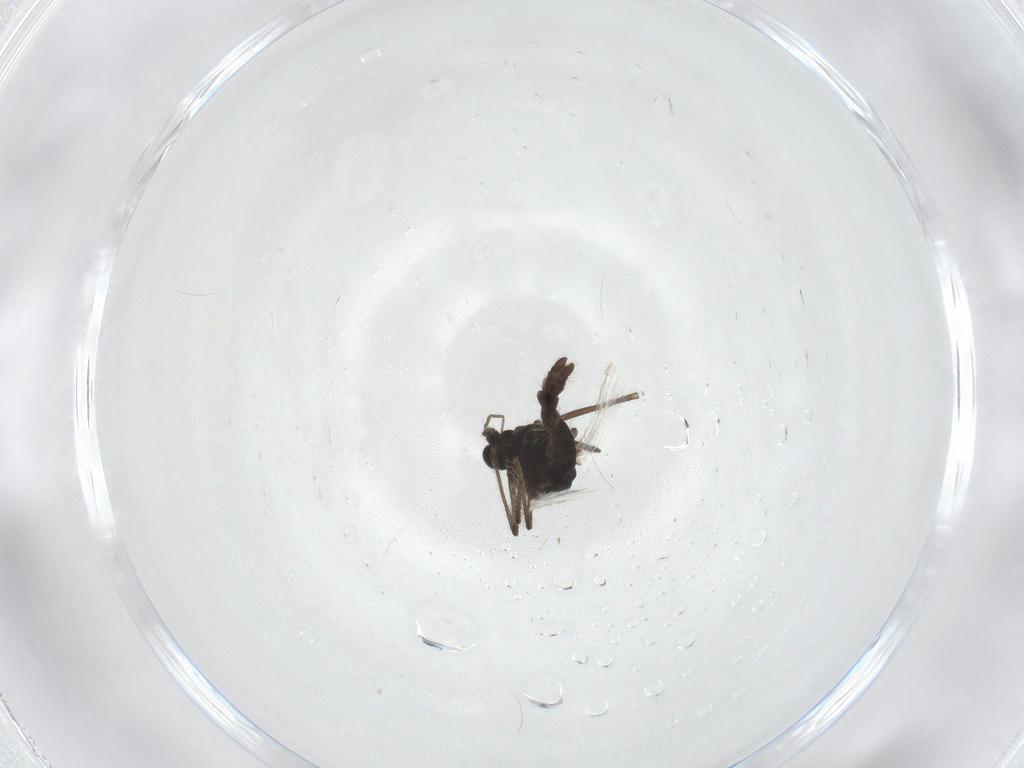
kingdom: Animalia
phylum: Arthropoda
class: Insecta
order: Diptera
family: Chironomidae
